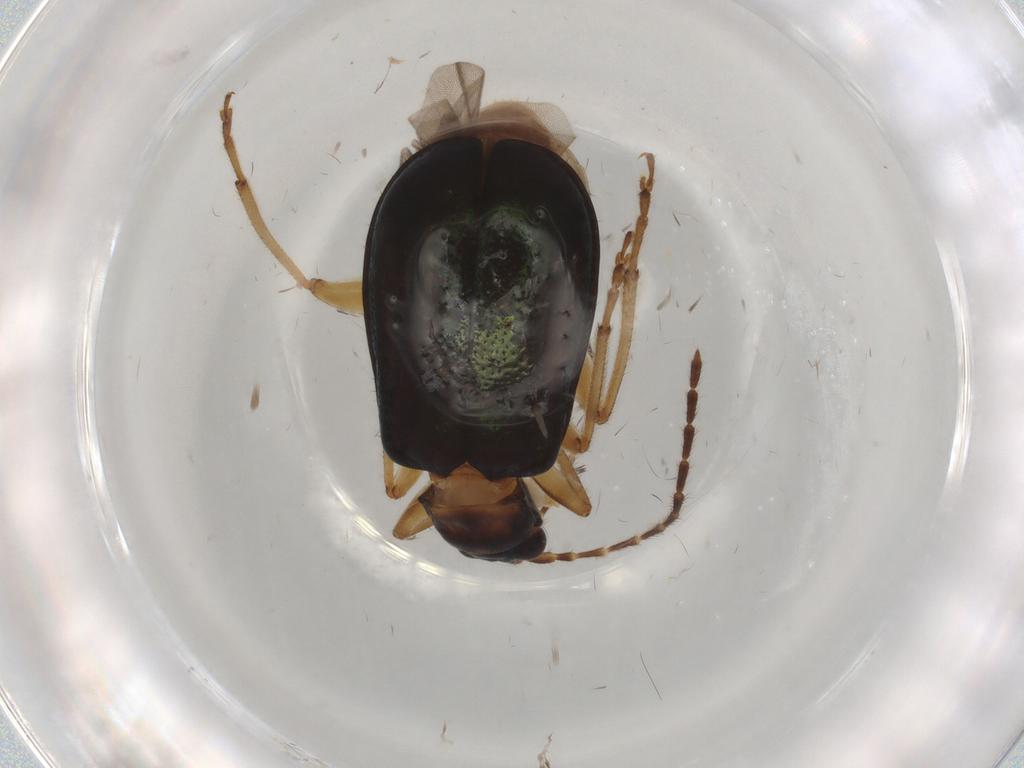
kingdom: Animalia
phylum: Arthropoda
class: Insecta
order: Coleoptera
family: Chrysomelidae
